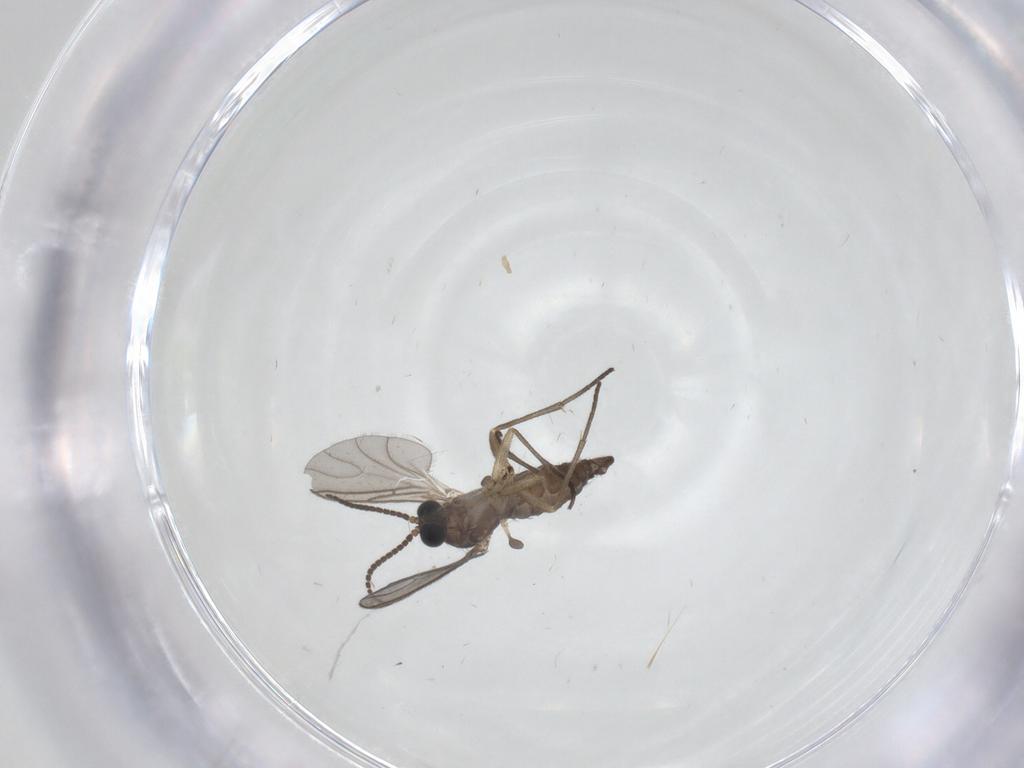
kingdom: Animalia
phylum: Arthropoda
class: Insecta
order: Diptera
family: Sciaridae
